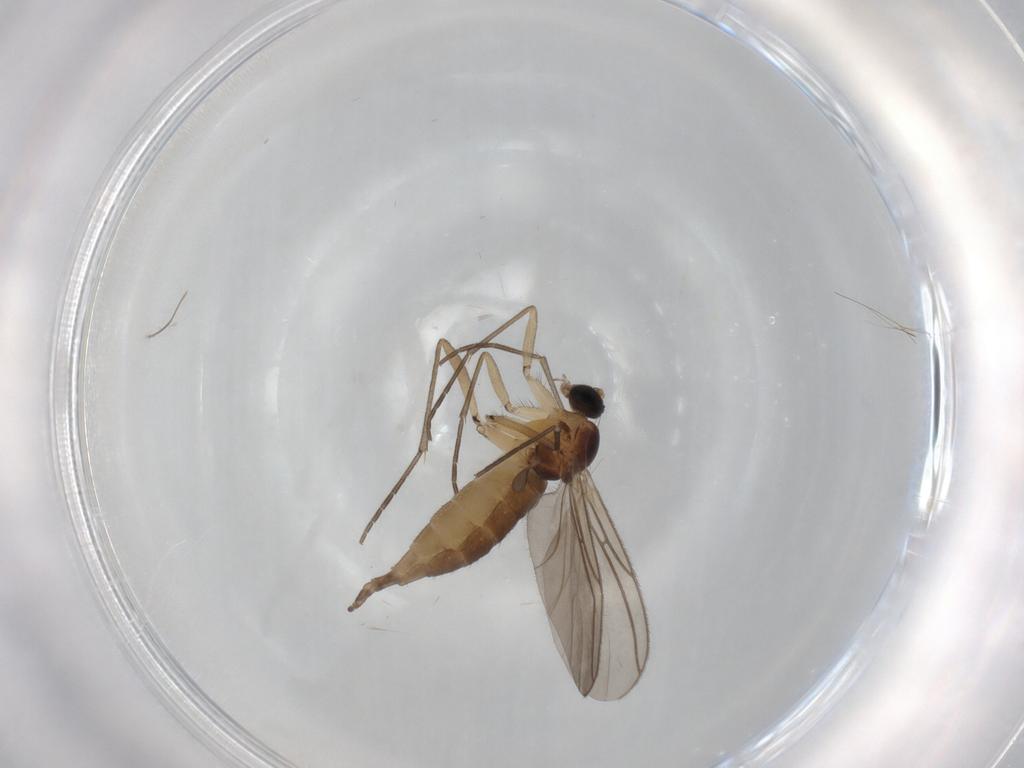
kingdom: Animalia
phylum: Arthropoda
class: Insecta
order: Diptera
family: Sciaridae
